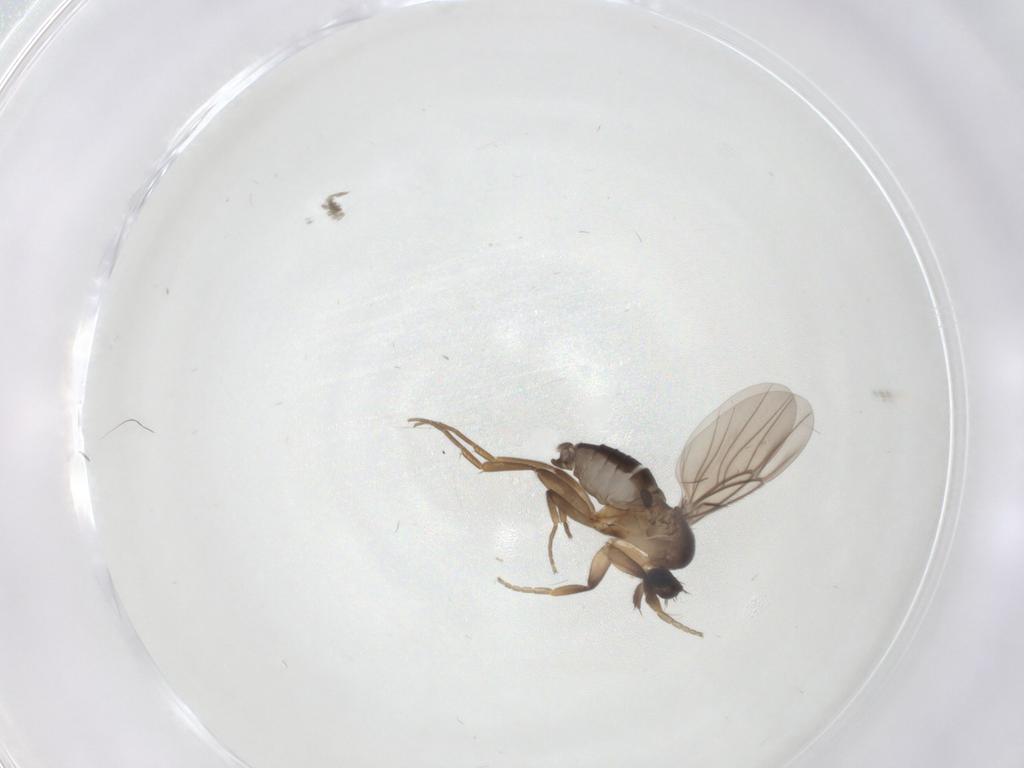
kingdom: Animalia
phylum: Arthropoda
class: Insecta
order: Diptera
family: Phoridae
